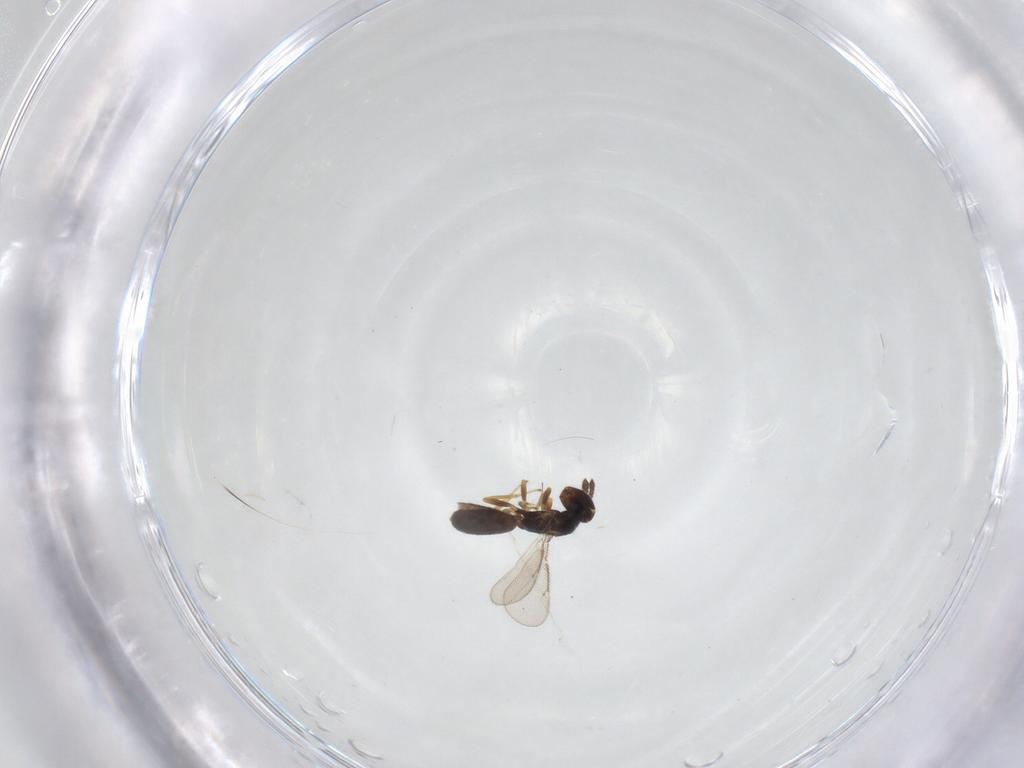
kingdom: Animalia
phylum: Arthropoda
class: Insecta
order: Hymenoptera
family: Eulophidae
